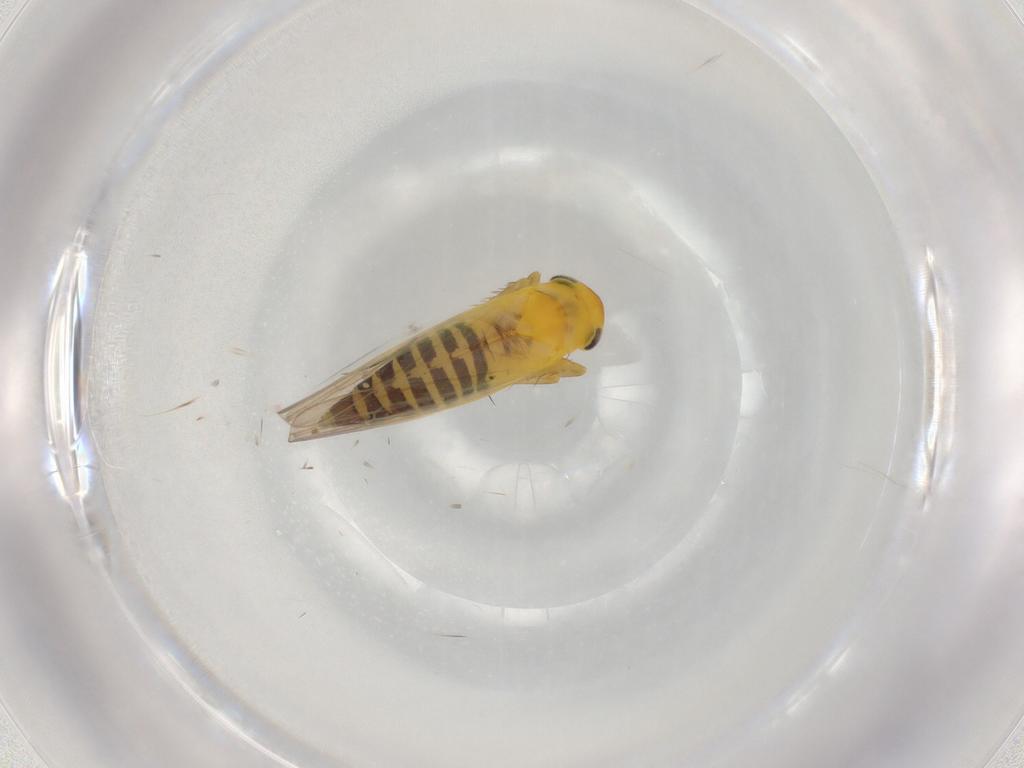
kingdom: Animalia
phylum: Arthropoda
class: Insecta
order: Hemiptera
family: Cicadellidae
